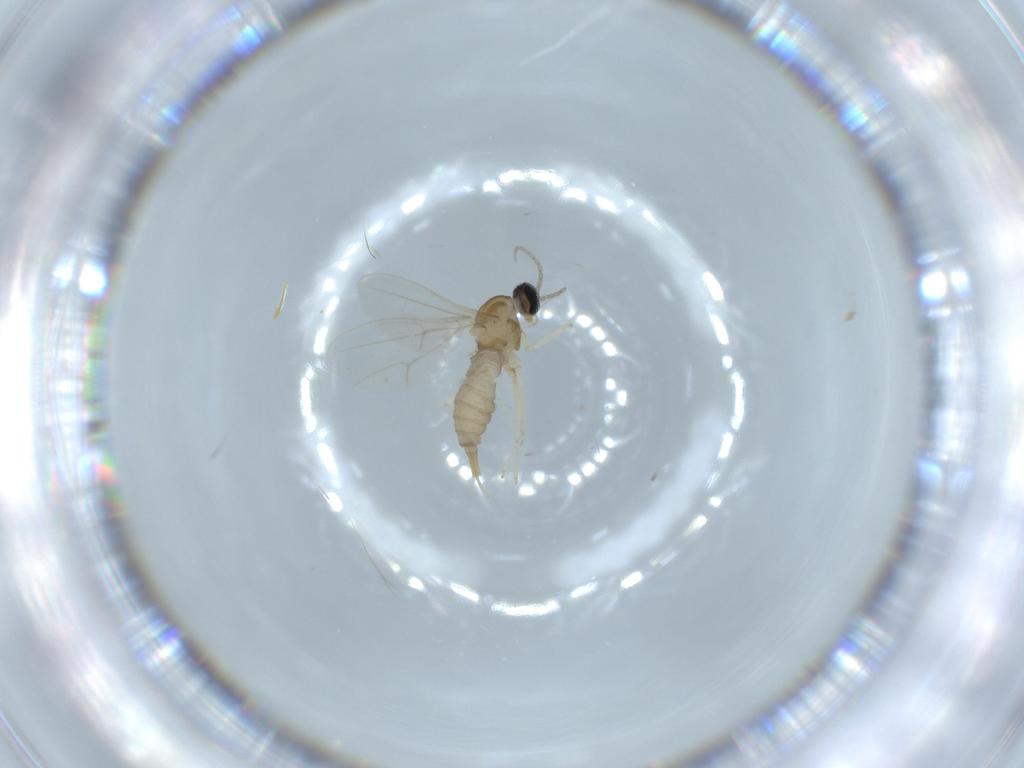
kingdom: Animalia
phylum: Arthropoda
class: Insecta
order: Diptera
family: Cecidomyiidae
